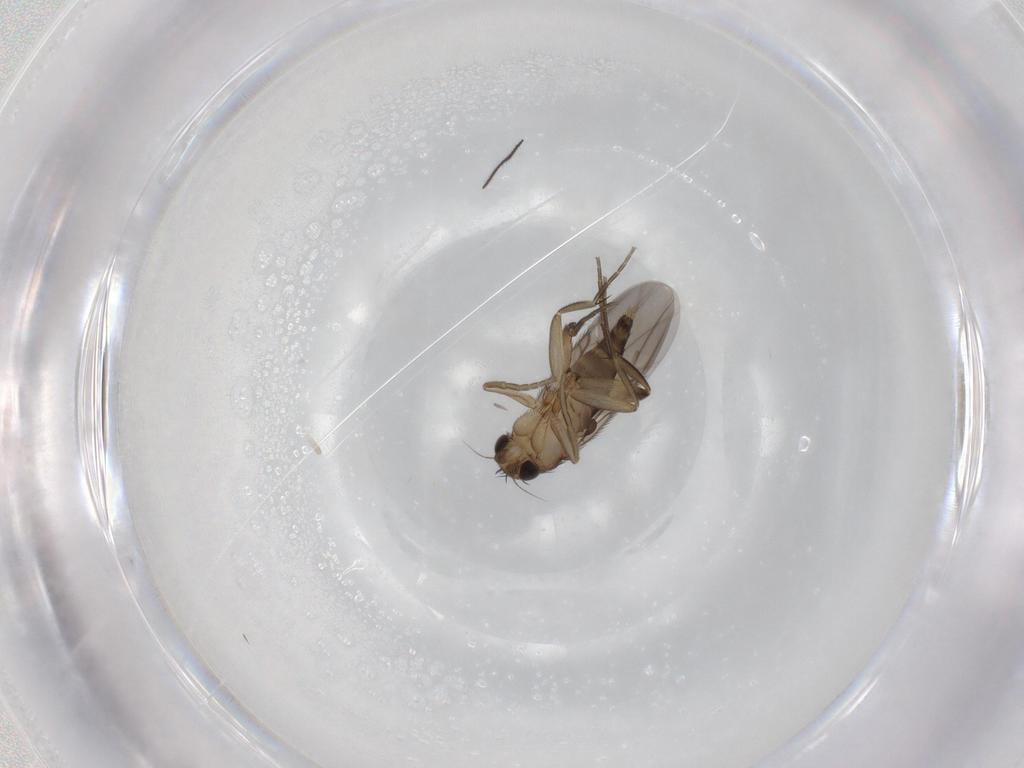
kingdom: Animalia
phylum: Arthropoda
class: Insecta
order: Diptera
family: Phoridae
